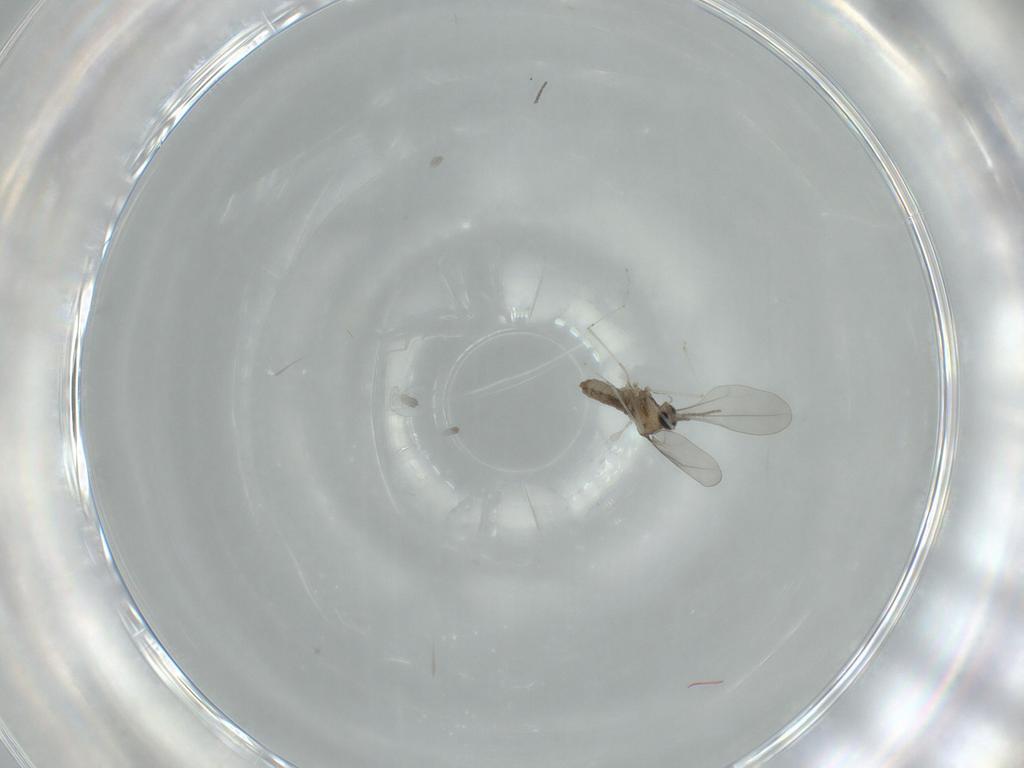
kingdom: Animalia
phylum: Arthropoda
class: Insecta
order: Diptera
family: Cecidomyiidae
